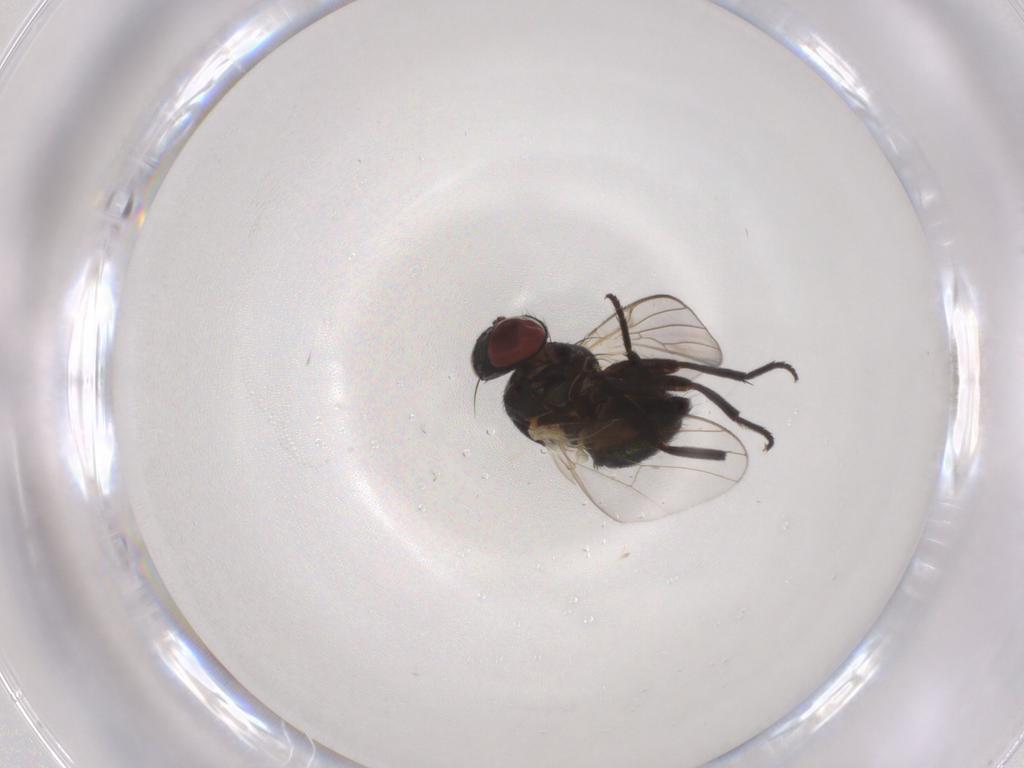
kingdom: Animalia
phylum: Arthropoda
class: Insecta
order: Diptera
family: Agromyzidae
